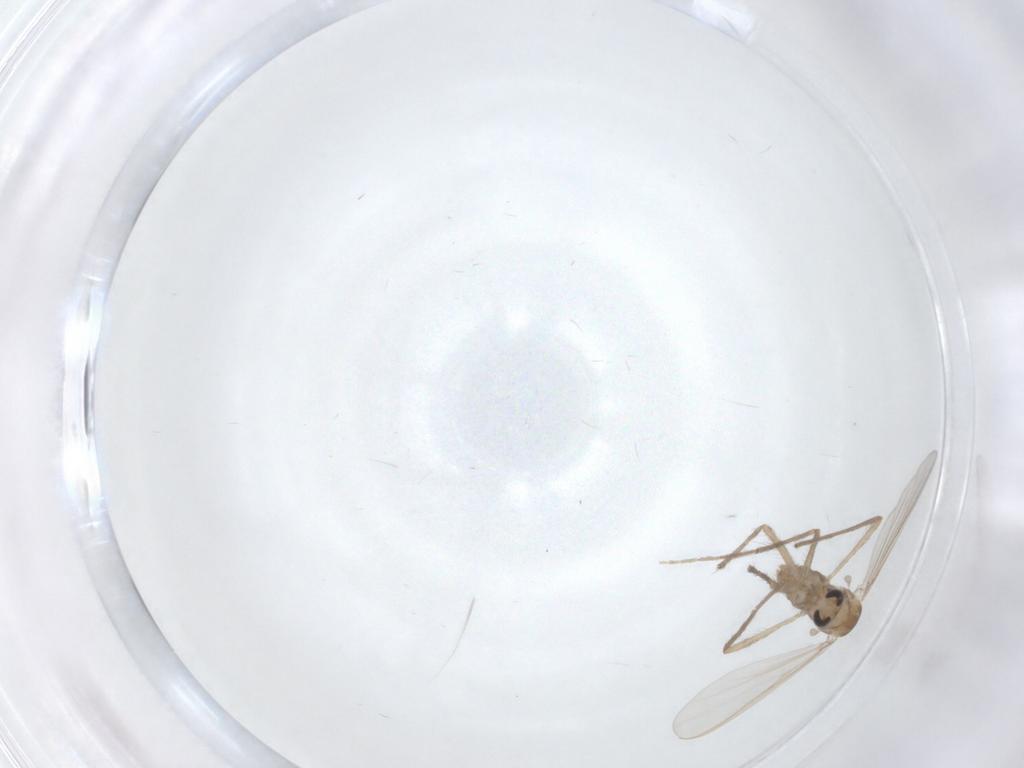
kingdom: Animalia
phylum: Arthropoda
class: Insecta
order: Diptera
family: Chironomidae
